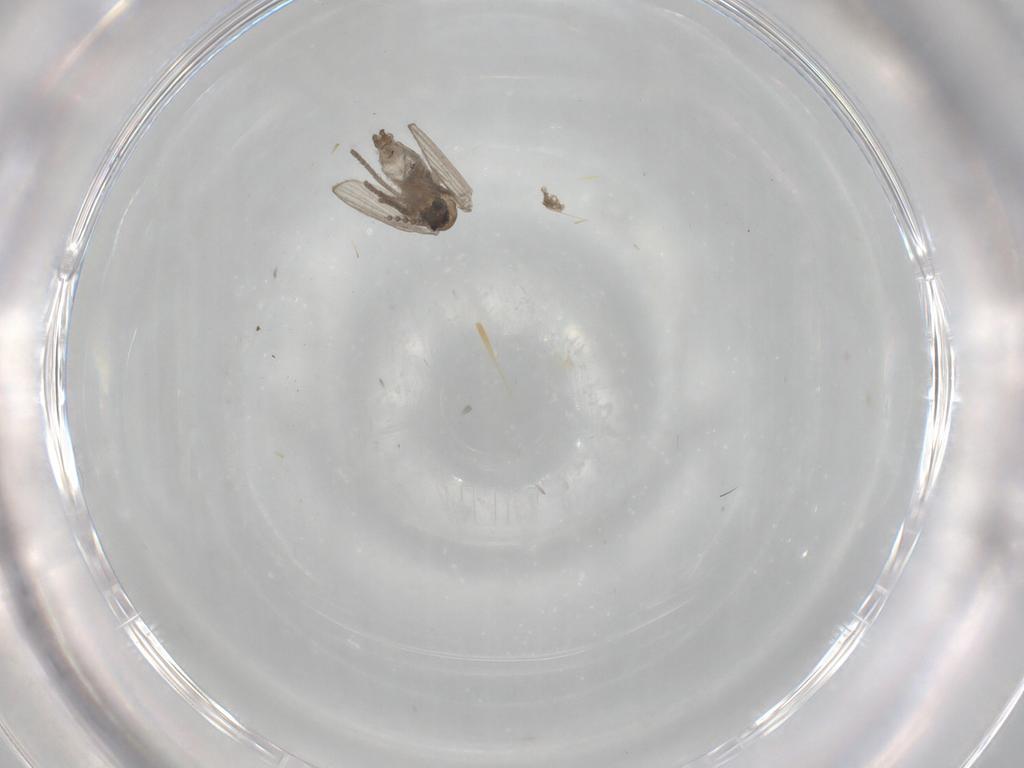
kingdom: Animalia
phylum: Arthropoda
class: Insecta
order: Diptera
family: Psychodidae
